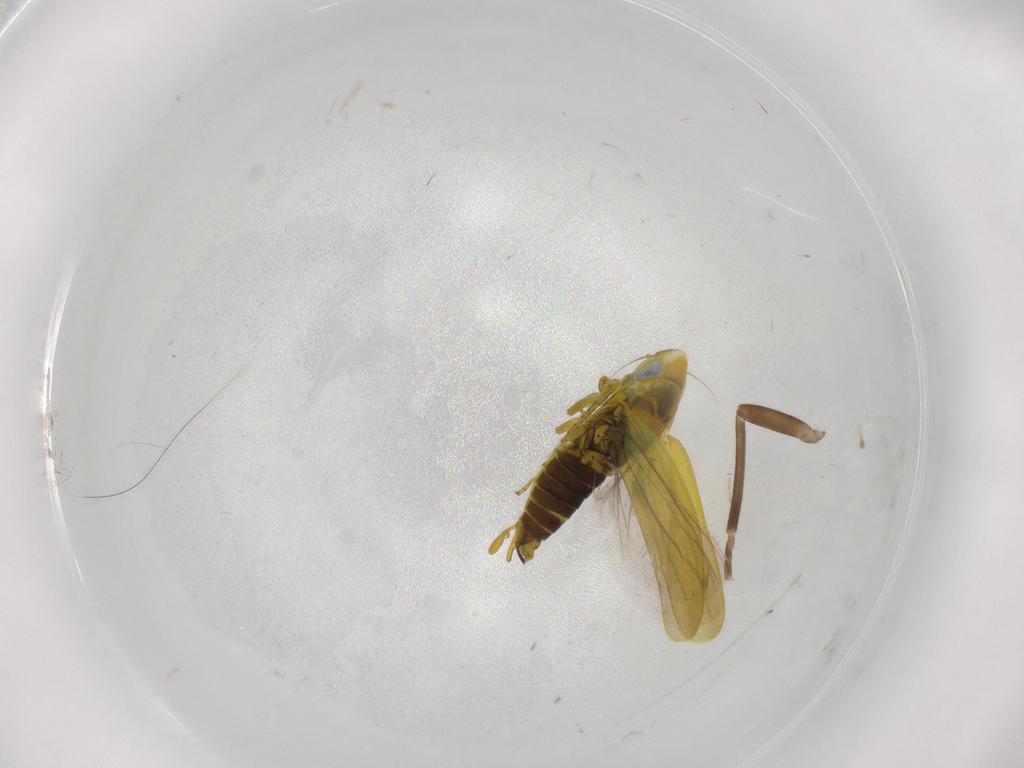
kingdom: Animalia
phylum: Arthropoda
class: Insecta
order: Hemiptera
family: Cicadellidae
